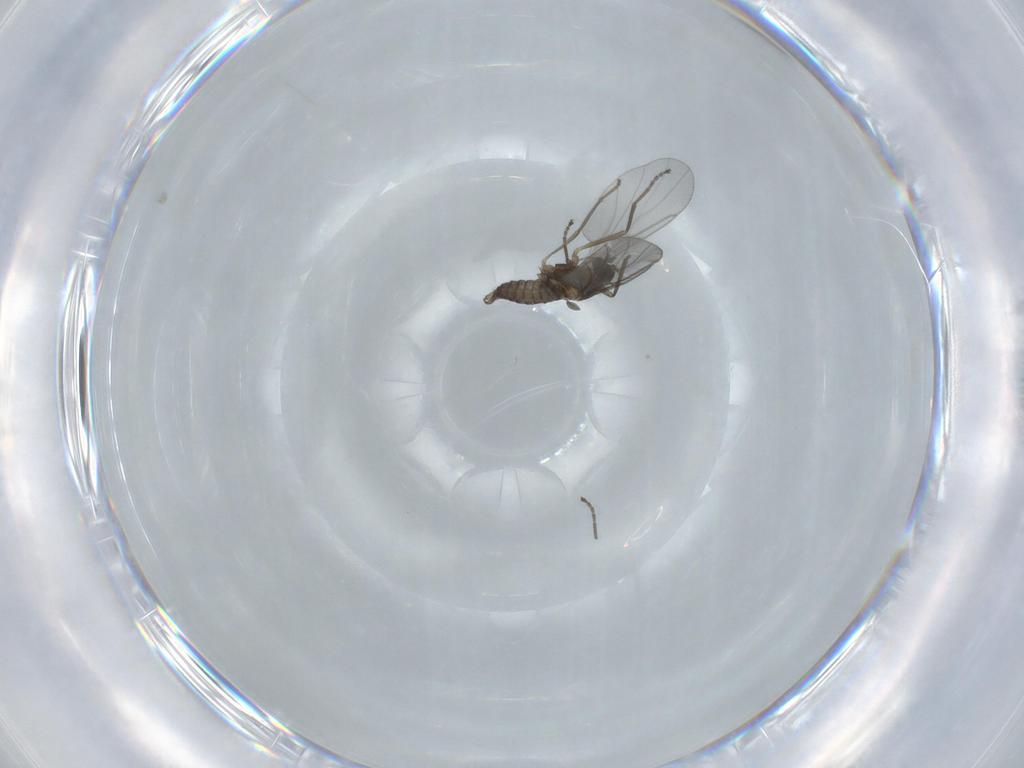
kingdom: Animalia
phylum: Arthropoda
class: Insecta
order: Diptera
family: Cecidomyiidae
